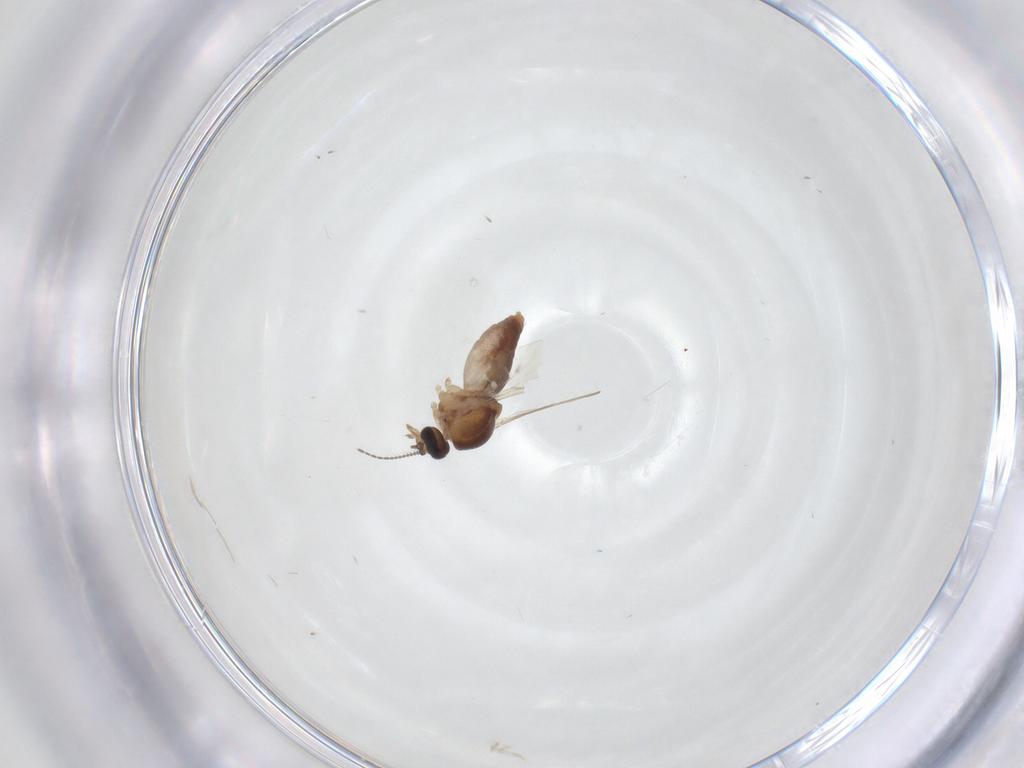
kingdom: Animalia
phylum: Arthropoda
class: Insecta
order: Diptera
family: Ceratopogonidae
